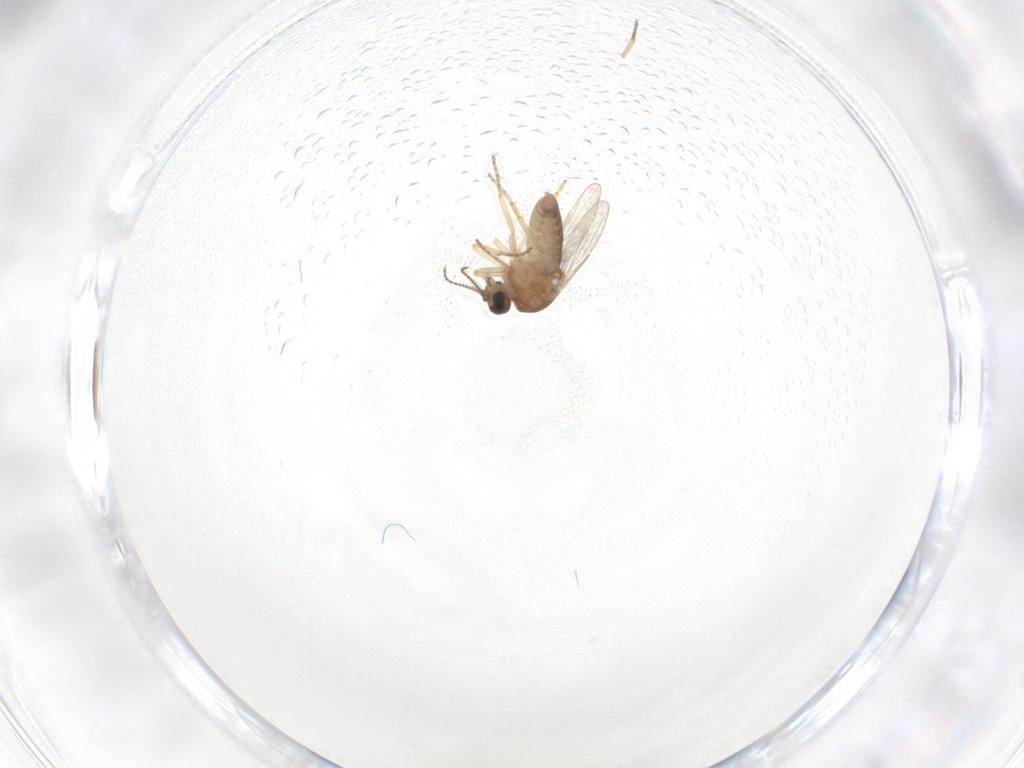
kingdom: Animalia
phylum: Arthropoda
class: Insecta
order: Diptera
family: Ceratopogonidae
